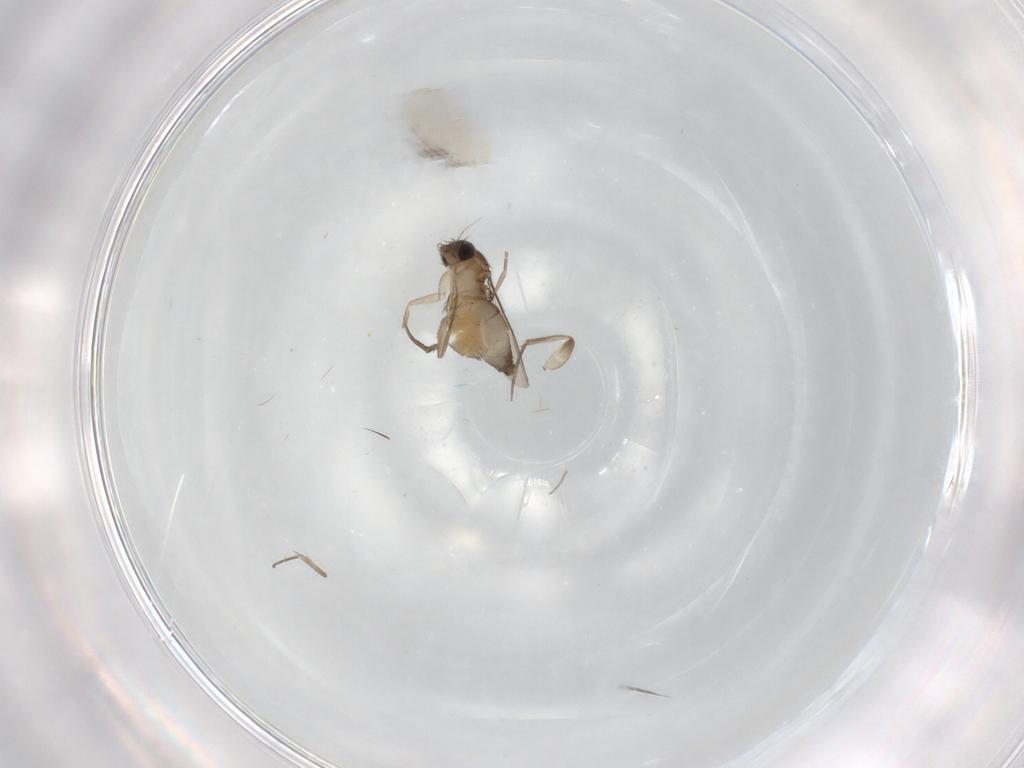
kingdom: Animalia
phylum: Arthropoda
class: Insecta
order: Diptera
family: Phoridae
